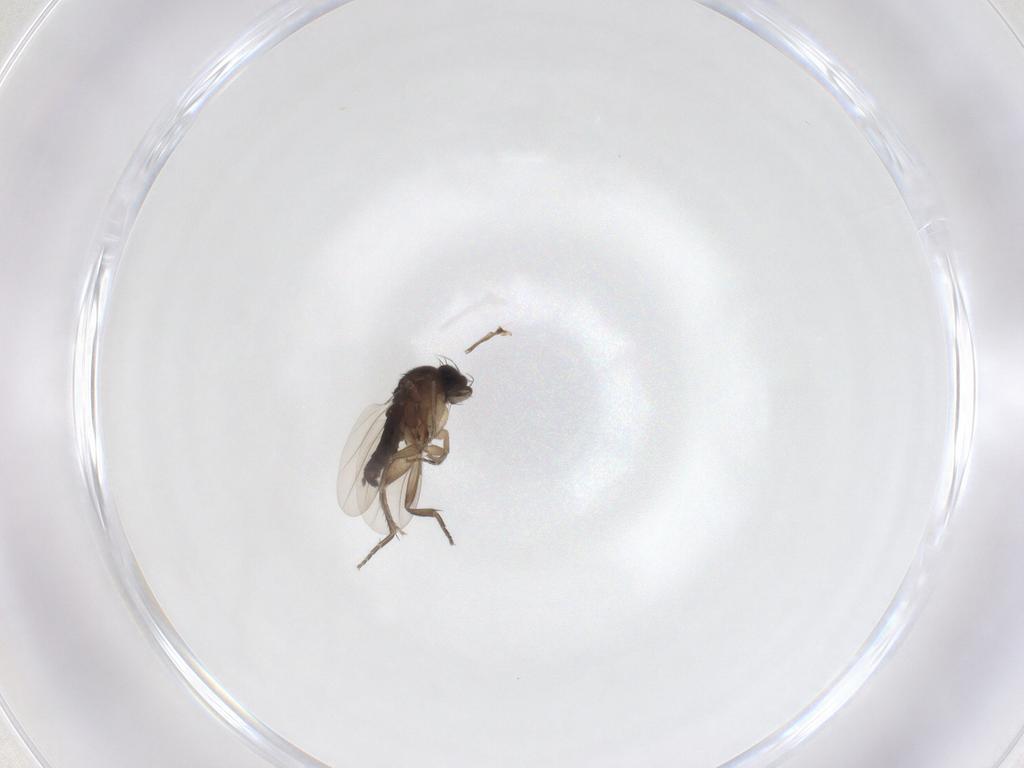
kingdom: Animalia
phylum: Arthropoda
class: Insecta
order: Diptera
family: Phoridae
